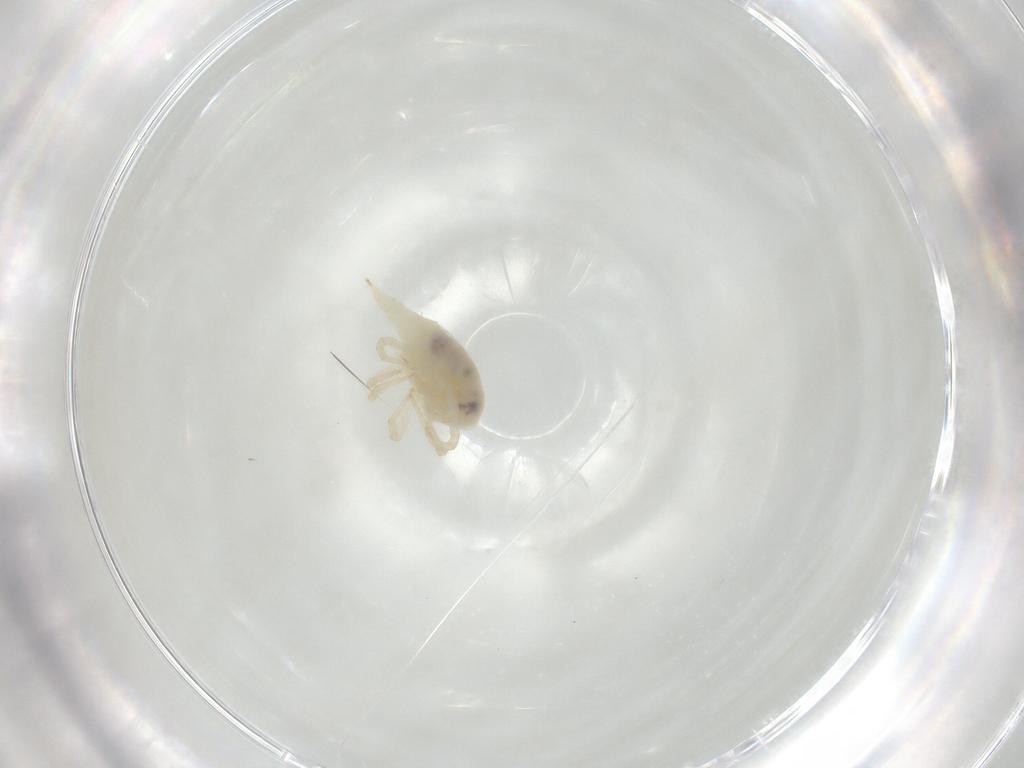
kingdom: Animalia
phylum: Arthropoda
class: Arachnida
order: Trombidiformes
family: Bdellidae
